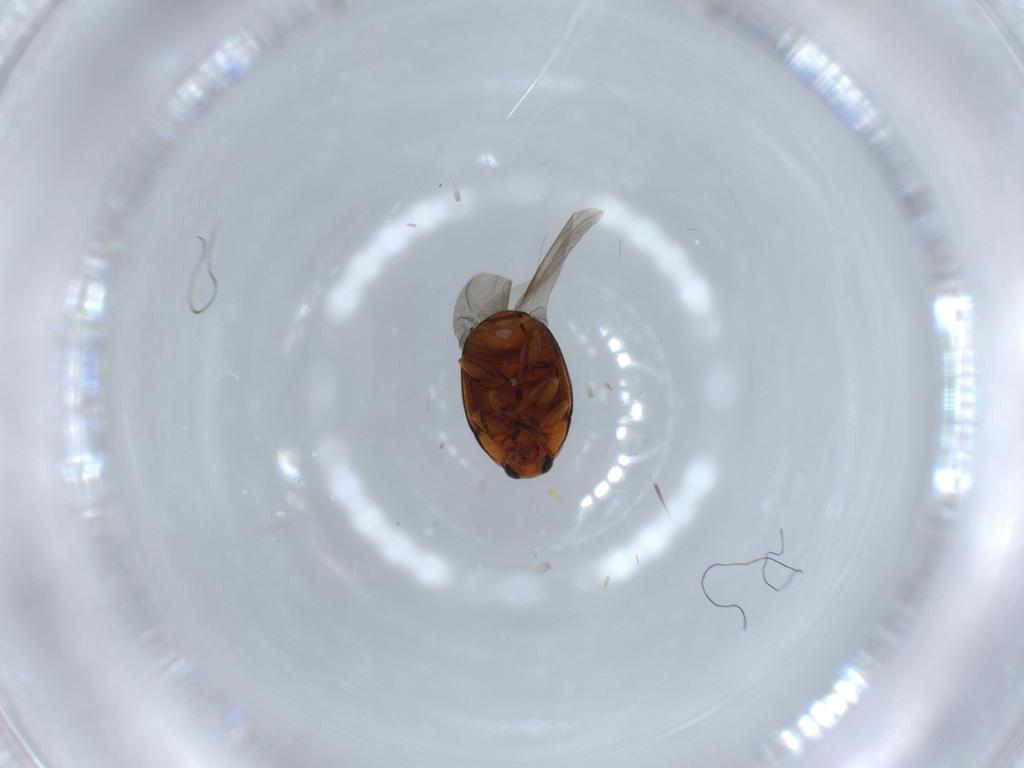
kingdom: Animalia
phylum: Arthropoda
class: Insecta
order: Coleoptera
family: Chrysomelidae
